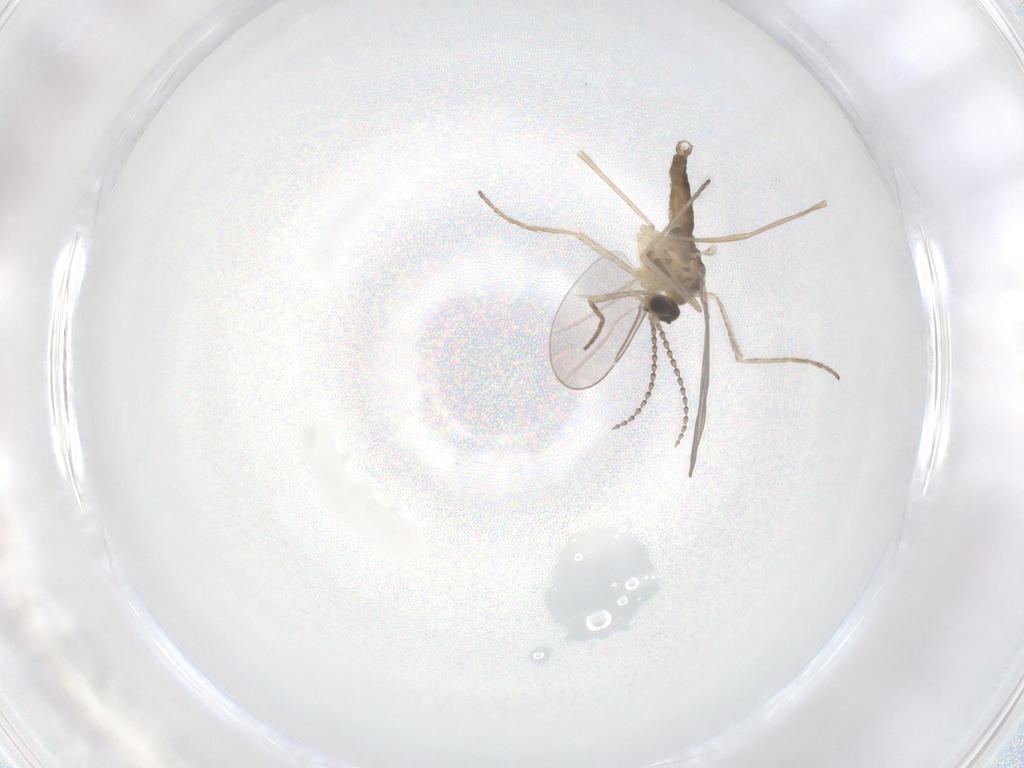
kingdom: Animalia
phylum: Arthropoda
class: Insecta
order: Diptera
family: Cecidomyiidae
